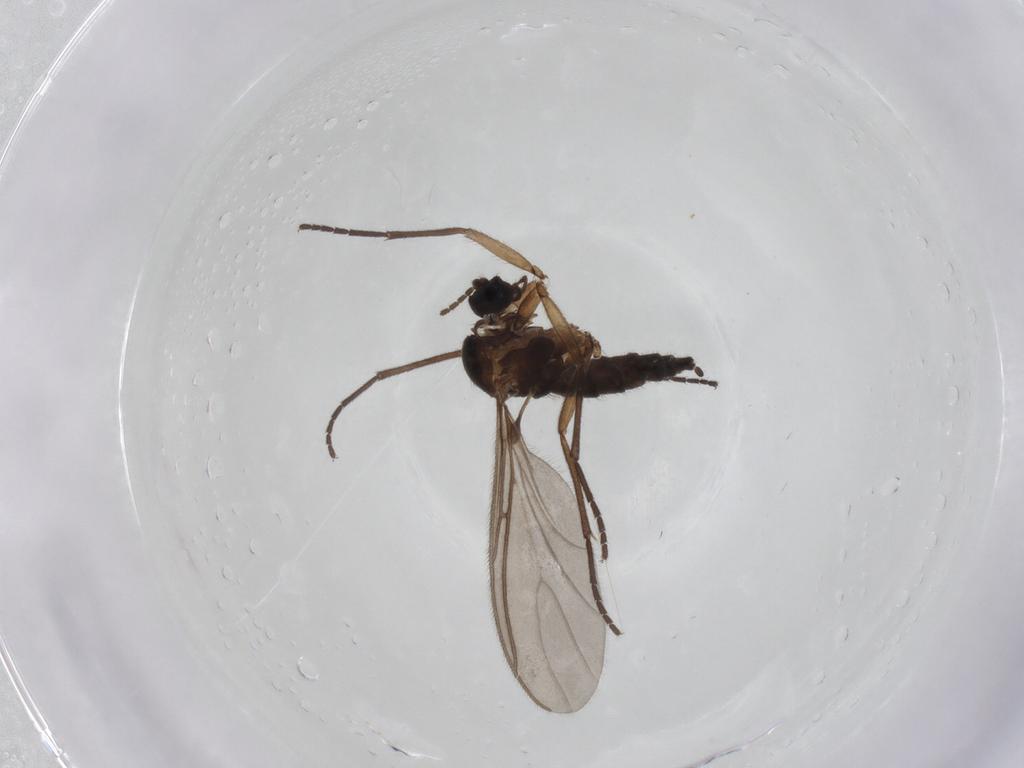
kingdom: Animalia
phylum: Arthropoda
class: Insecta
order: Diptera
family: Sciaridae
